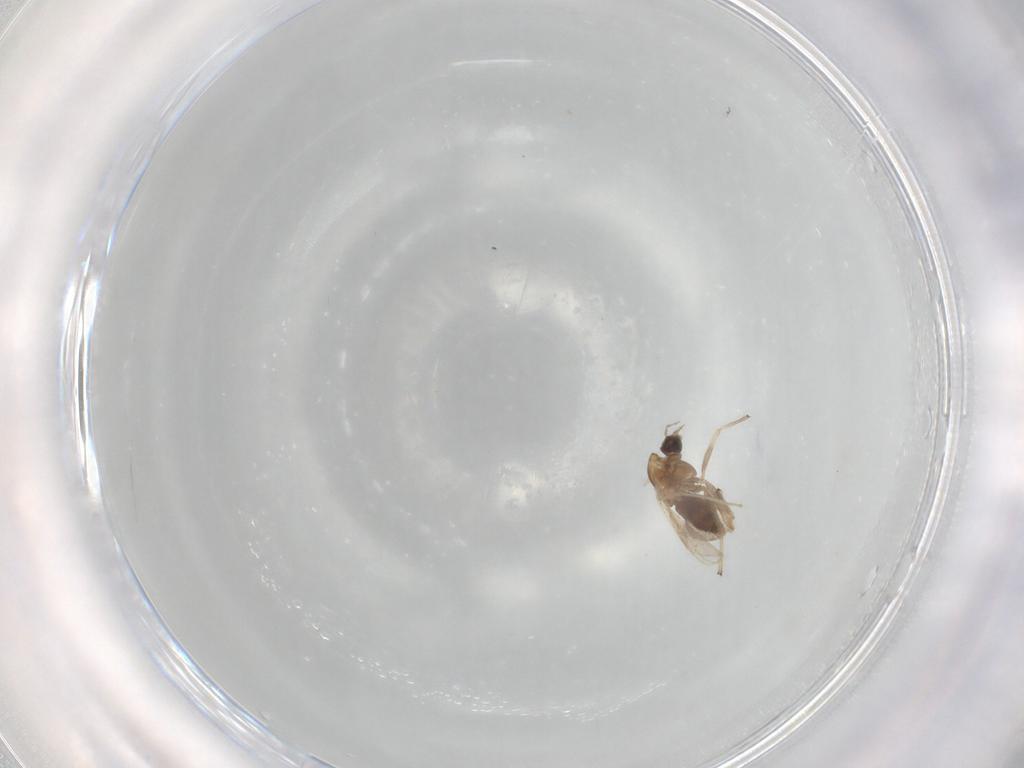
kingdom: Animalia
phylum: Arthropoda
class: Insecta
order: Diptera
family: Chironomidae
